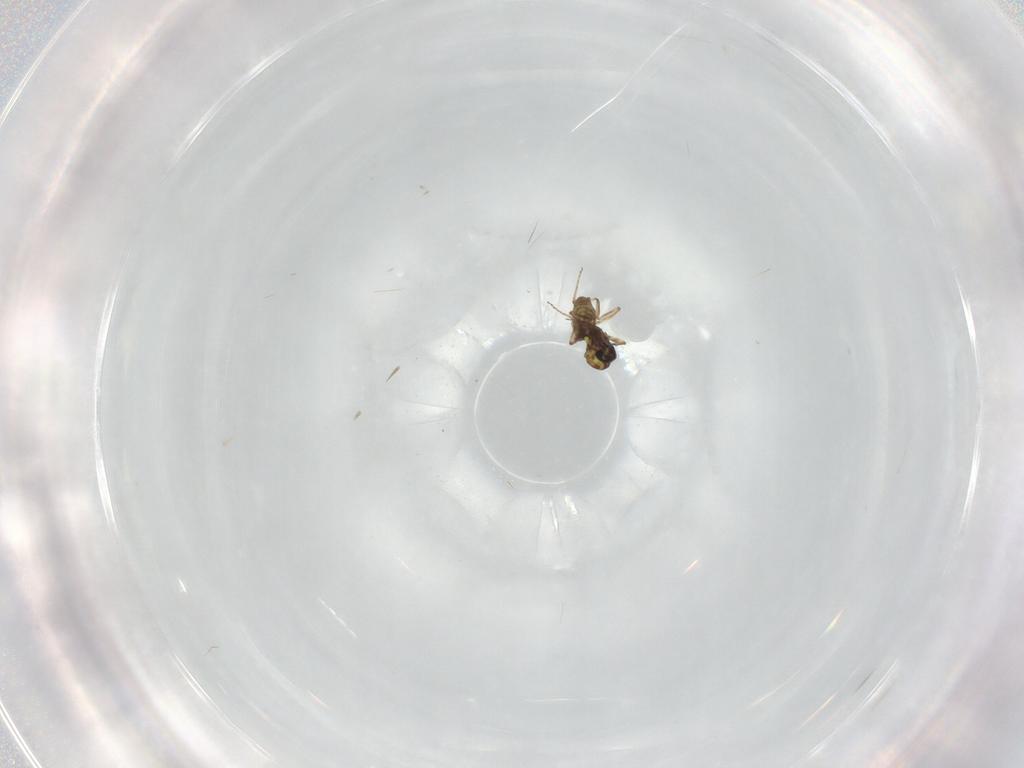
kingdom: Animalia
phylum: Arthropoda
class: Insecta
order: Diptera
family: Ceratopogonidae
